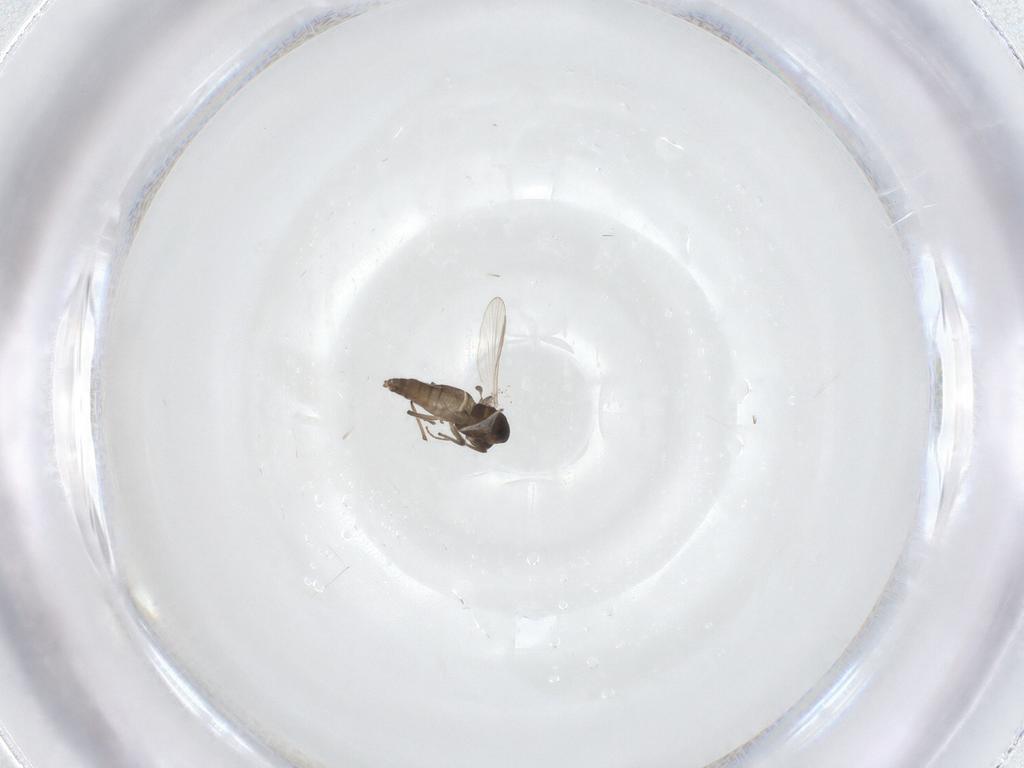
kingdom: Animalia
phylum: Arthropoda
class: Insecta
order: Diptera
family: Chironomidae
